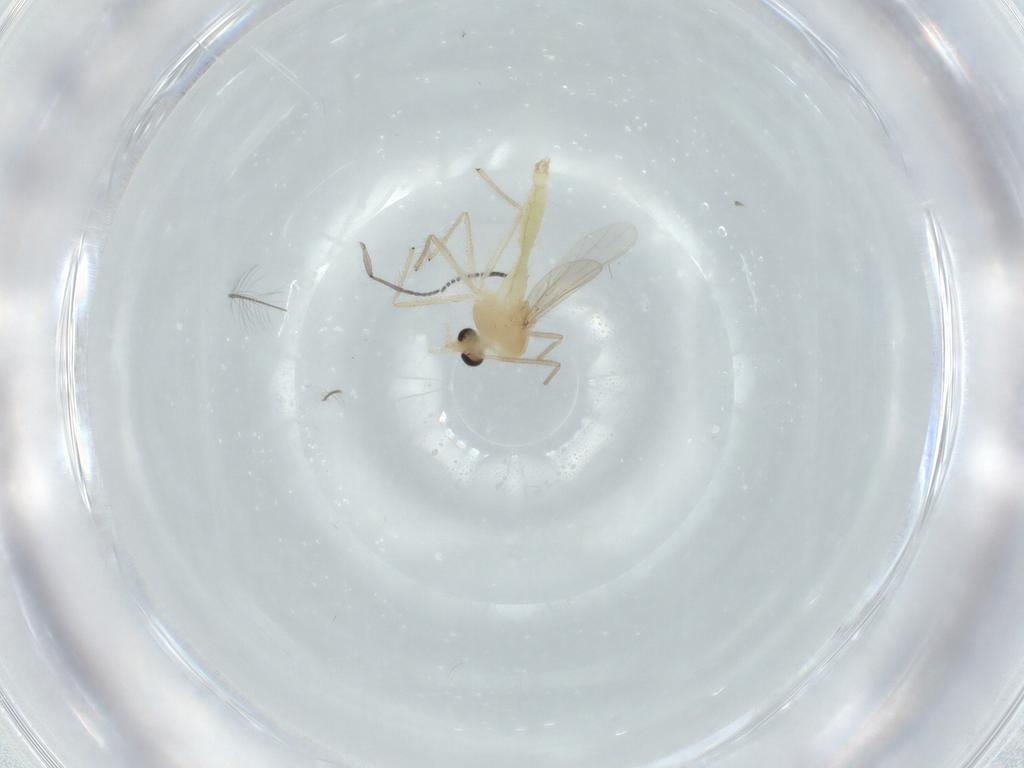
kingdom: Animalia
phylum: Arthropoda
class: Insecta
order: Diptera
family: Chironomidae
